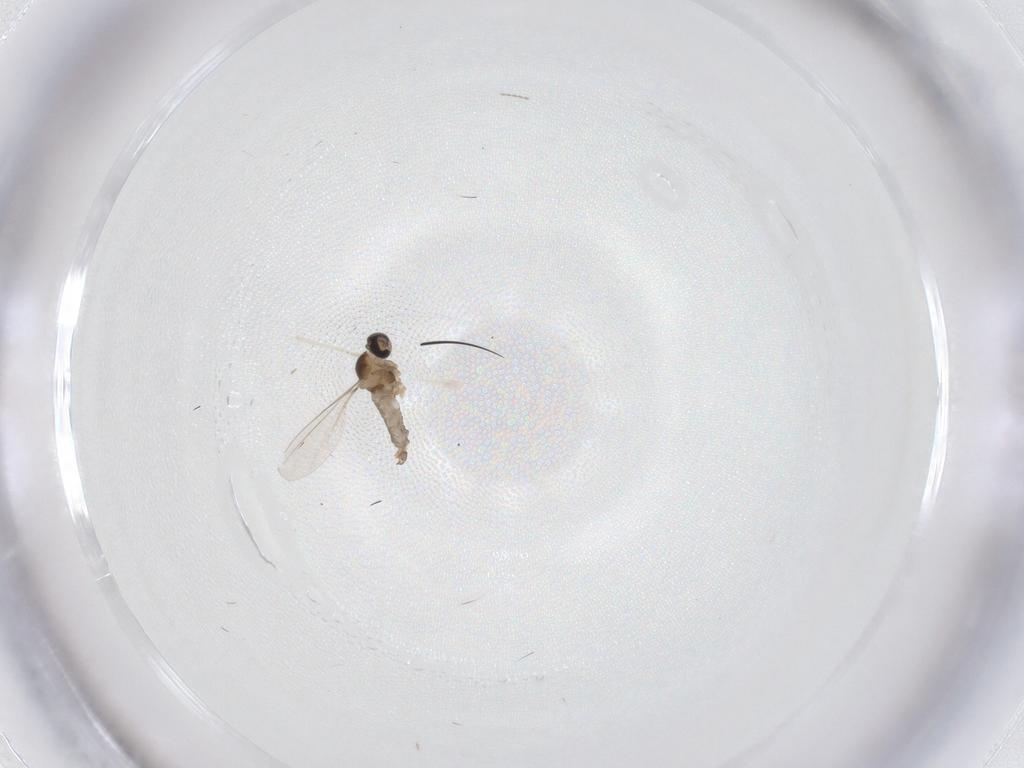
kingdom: Animalia
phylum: Arthropoda
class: Insecta
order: Diptera
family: Cecidomyiidae
